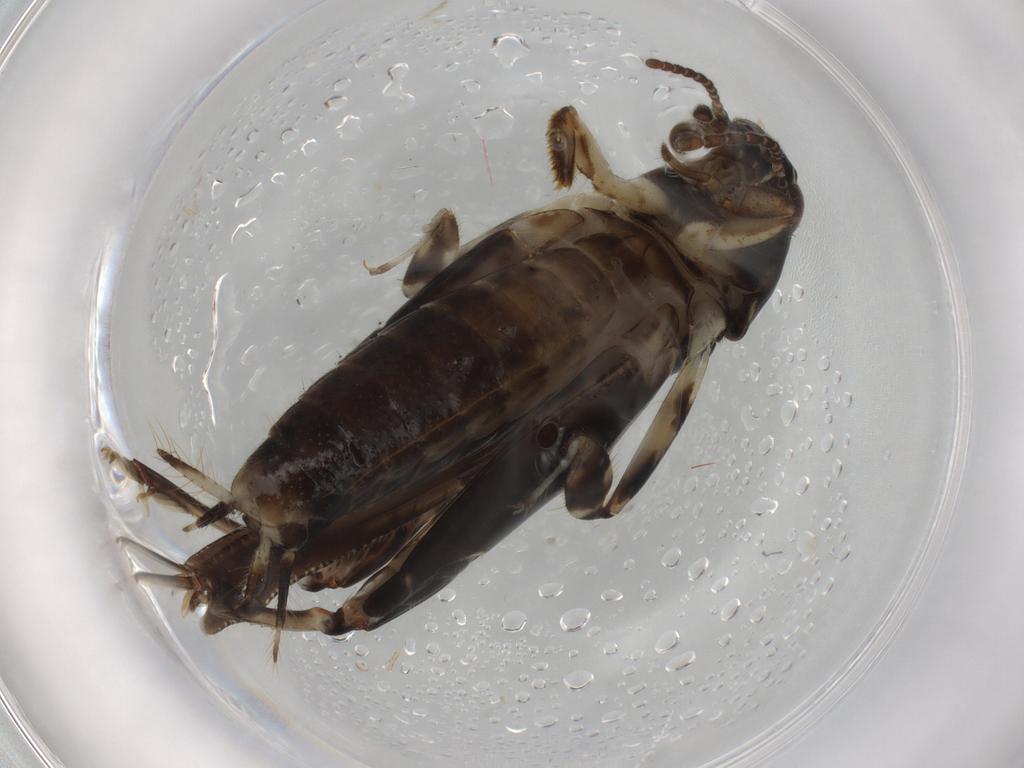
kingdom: Animalia
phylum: Arthropoda
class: Insecta
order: Orthoptera
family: Tridactylidae
